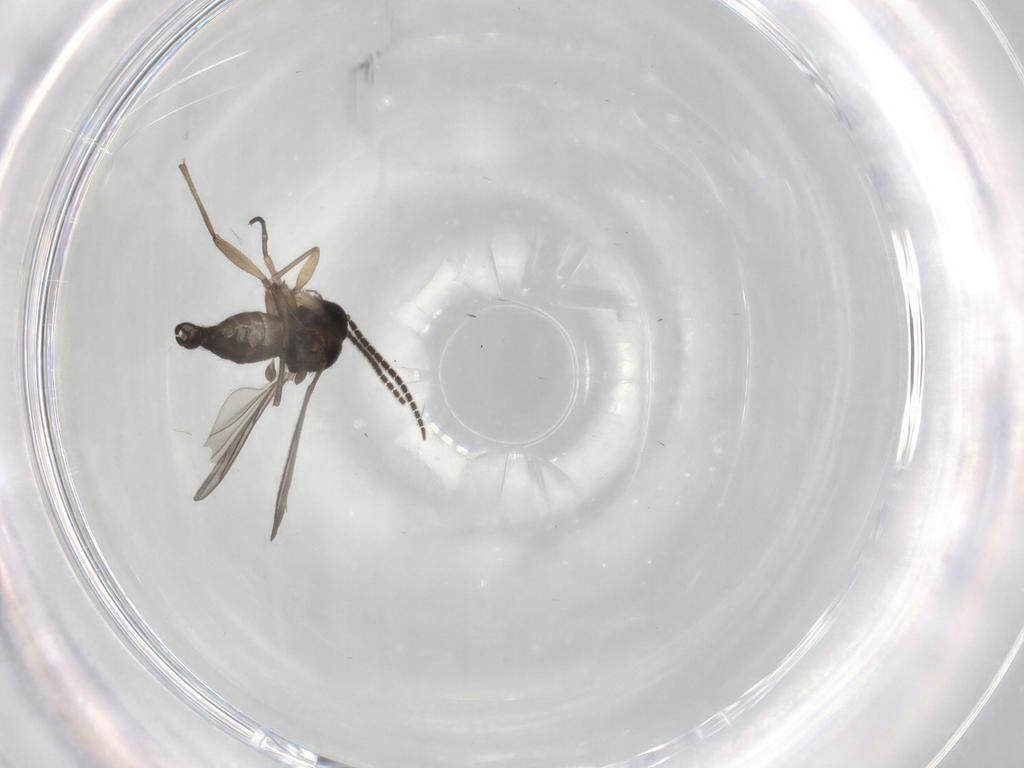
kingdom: Animalia
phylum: Arthropoda
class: Insecta
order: Diptera
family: Sciaridae
